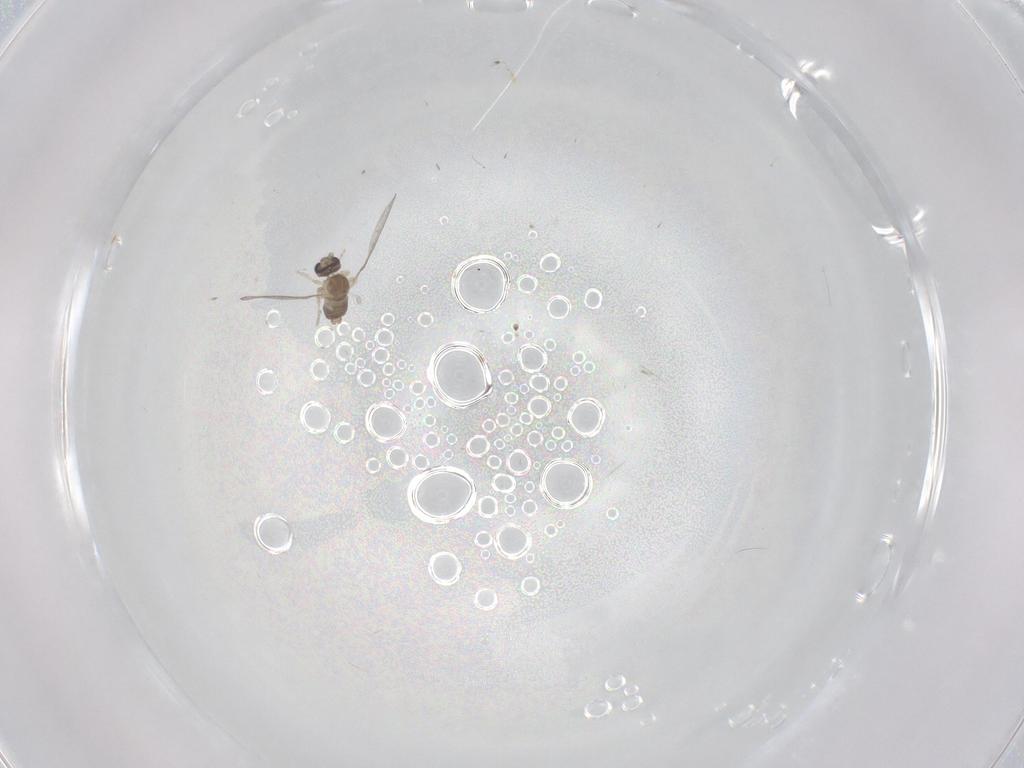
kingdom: Animalia
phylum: Arthropoda
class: Insecta
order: Diptera
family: Cecidomyiidae
